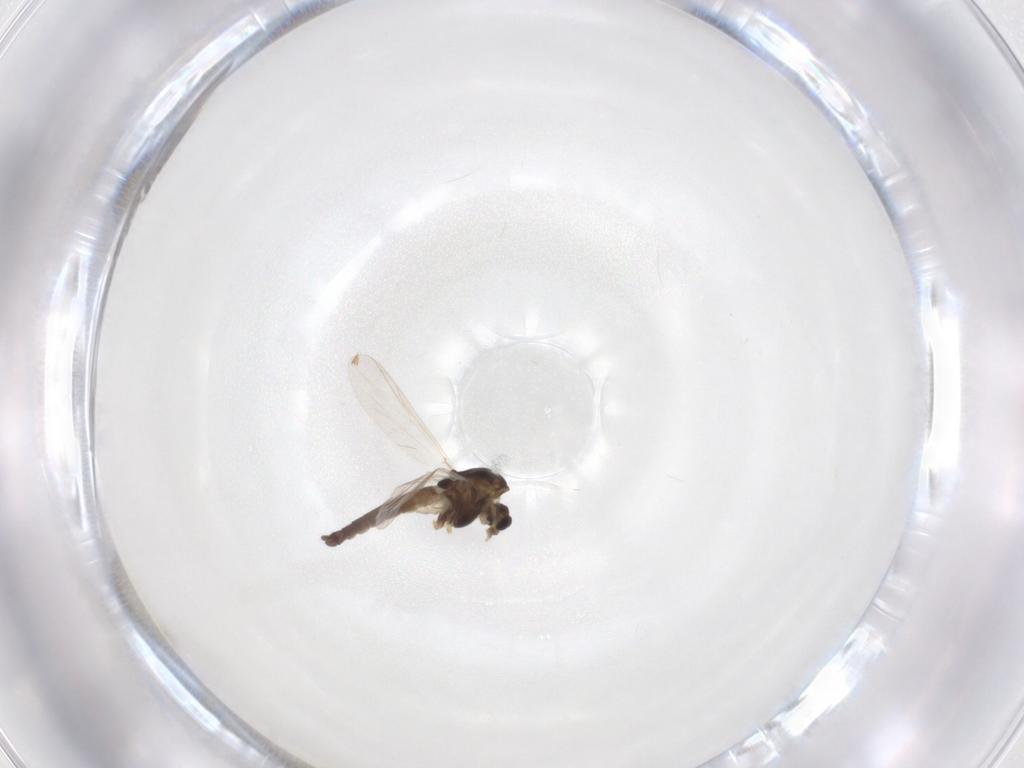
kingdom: Animalia
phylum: Arthropoda
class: Insecta
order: Diptera
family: Chironomidae
